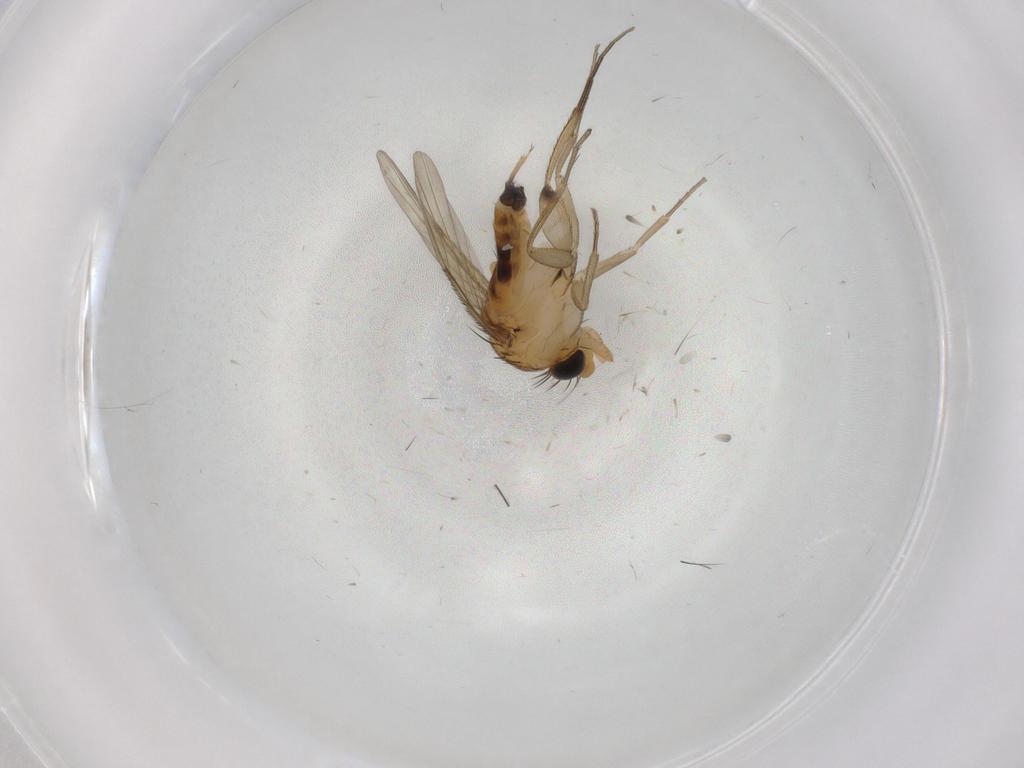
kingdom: Animalia
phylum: Arthropoda
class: Insecta
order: Diptera
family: Phoridae
